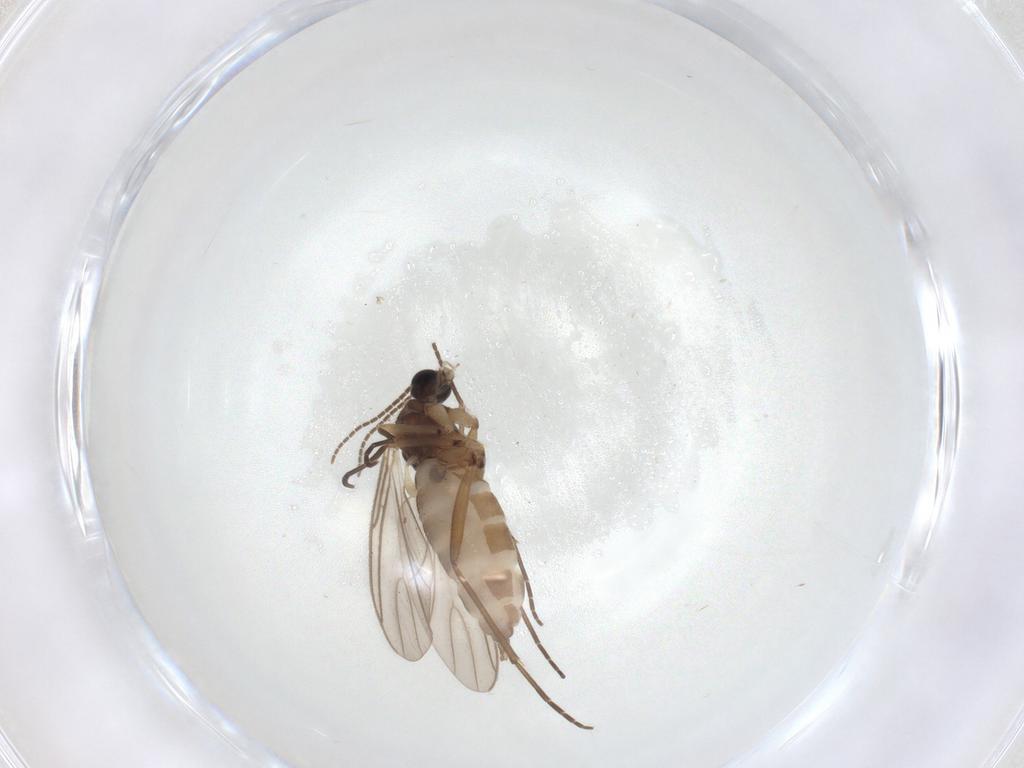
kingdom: Animalia
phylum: Arthropoda
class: Insecta
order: Diptera
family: Sciaridae
